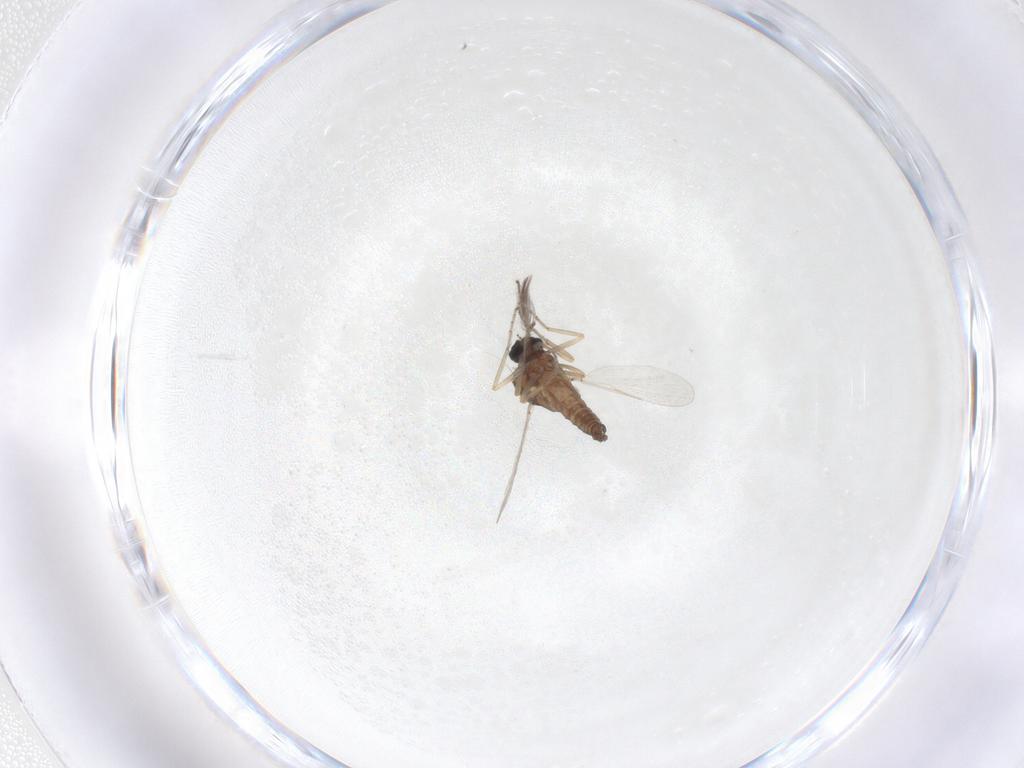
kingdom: Animalia
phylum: Arthropoda
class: Insecta
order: Diptera
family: Ceratopogonidae
